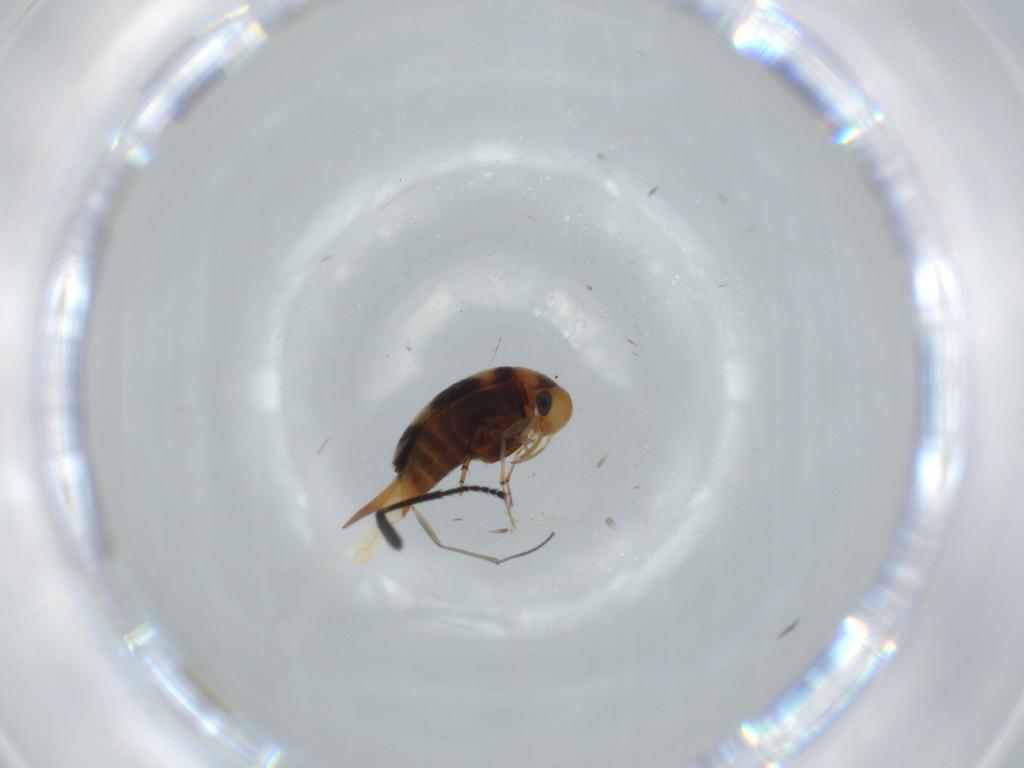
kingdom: Animalia
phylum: Arthropoda
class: Insecta
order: Coleoptera
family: Mordellidae
